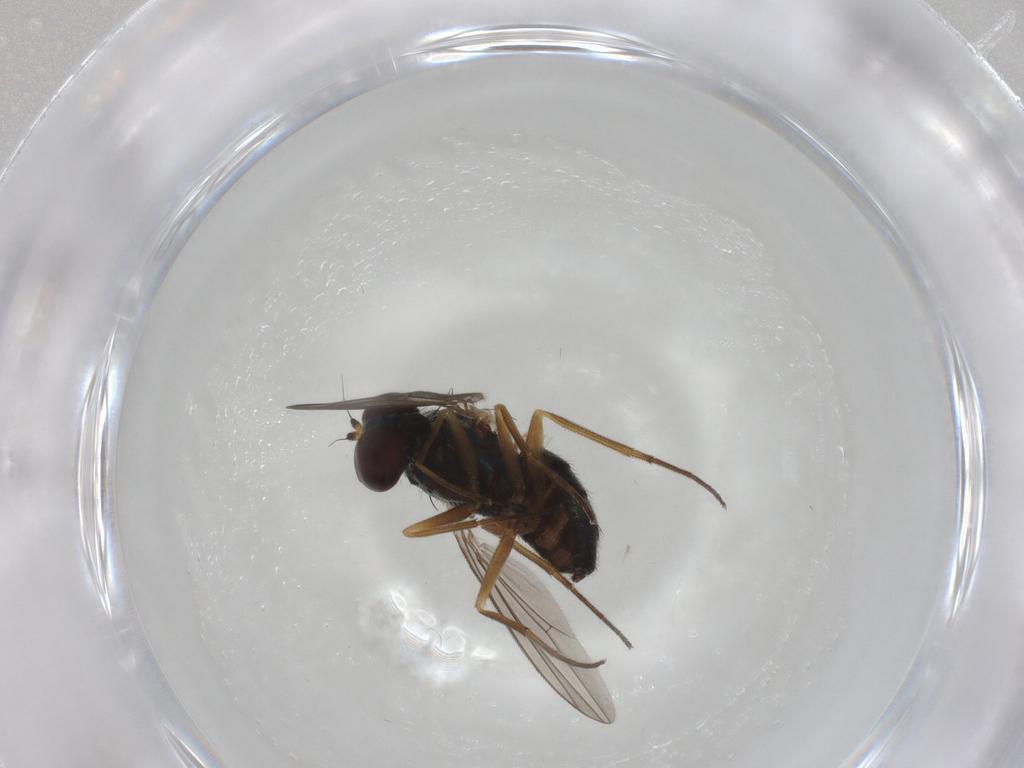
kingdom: Animalia
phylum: Arthropoda
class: Insecta
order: Diptera
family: Dolichopodidae
